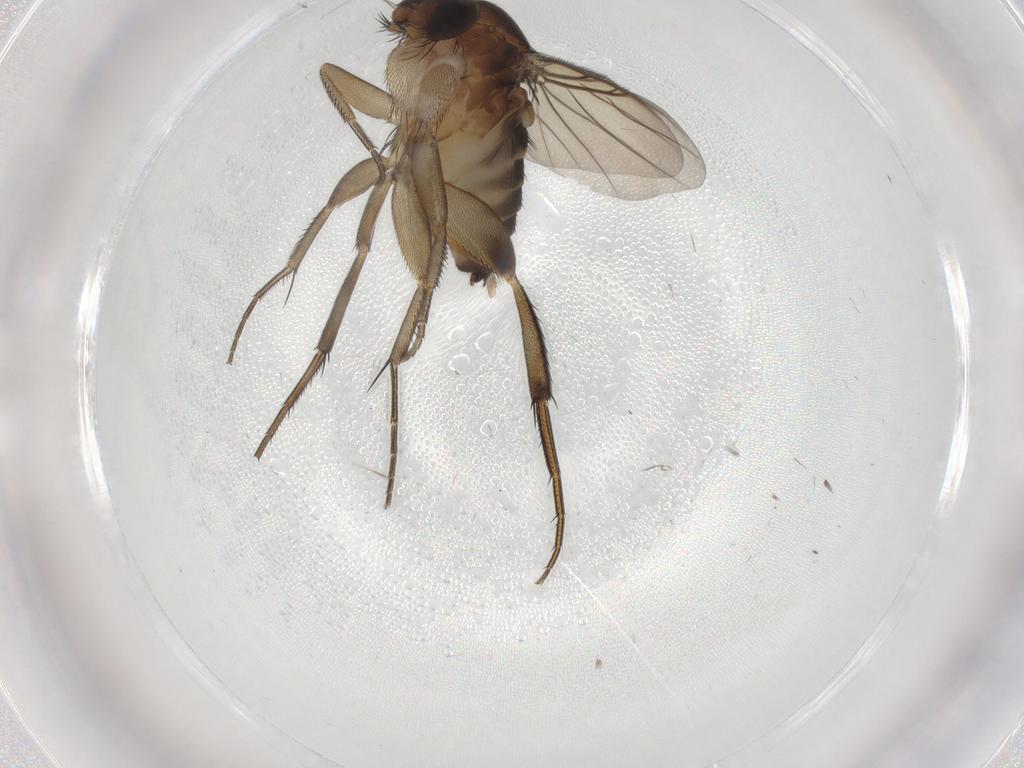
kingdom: Animalia
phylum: Arthropoda
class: Insecta
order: Diptera
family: Cecidomyiidae
